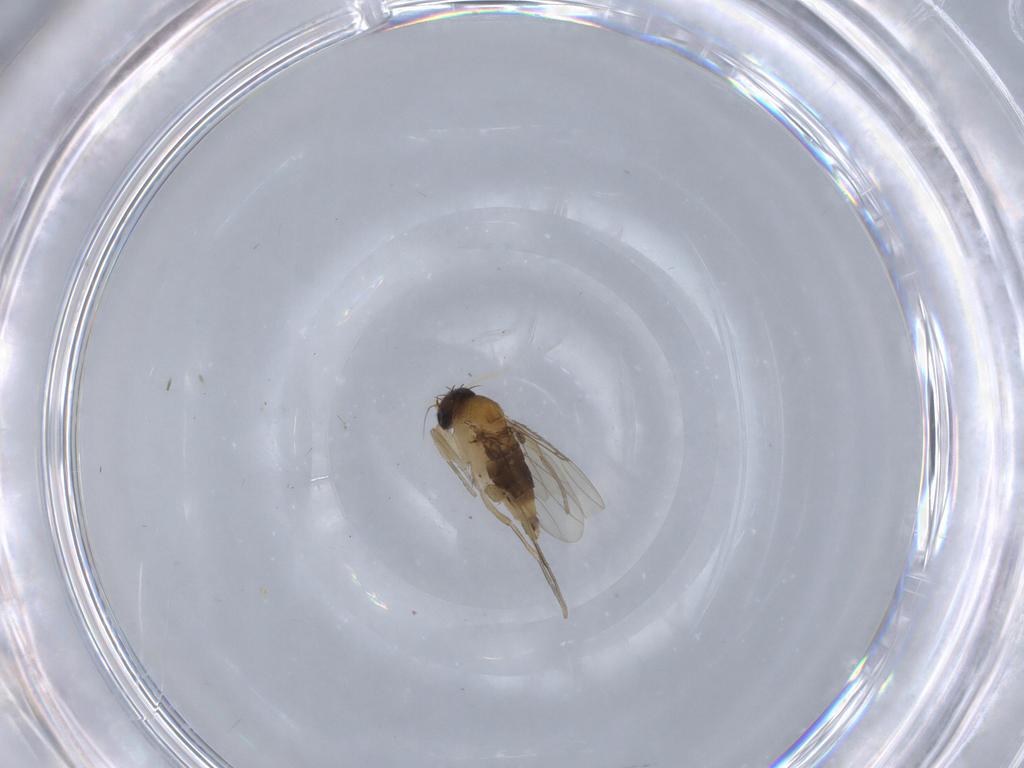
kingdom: Animalia
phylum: Arthropoda
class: Insecta
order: Diptera
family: Phoridae
